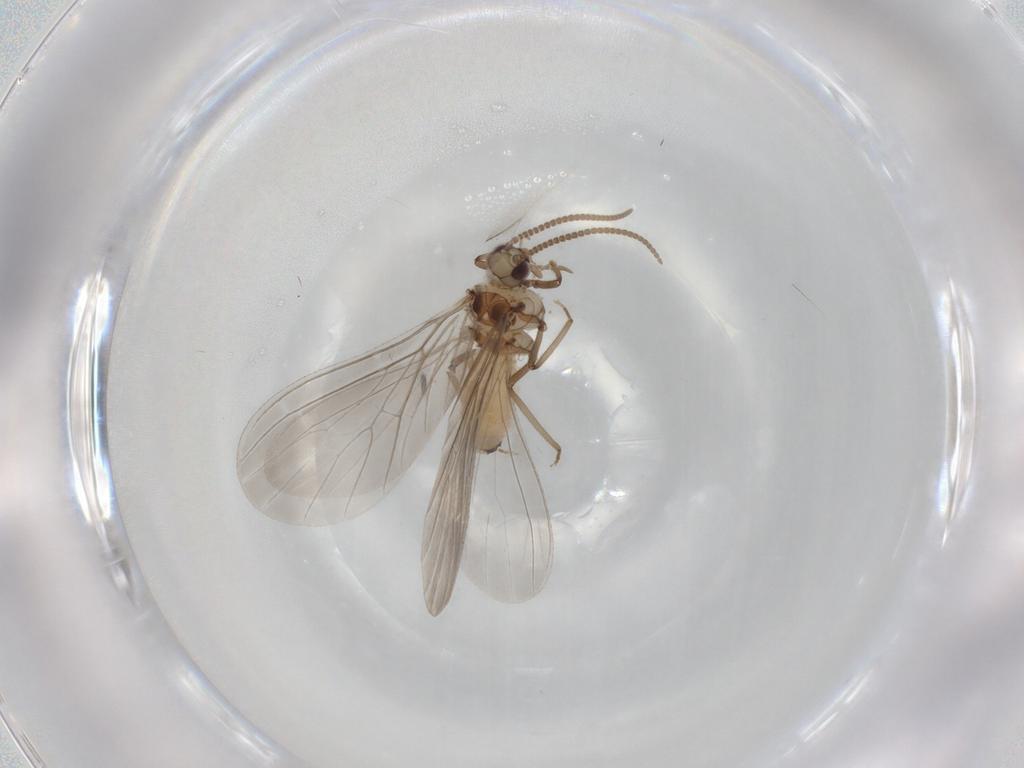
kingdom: Animalia
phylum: Arthropoda
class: Insecta
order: Neuroptera
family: Coniopterygidae
